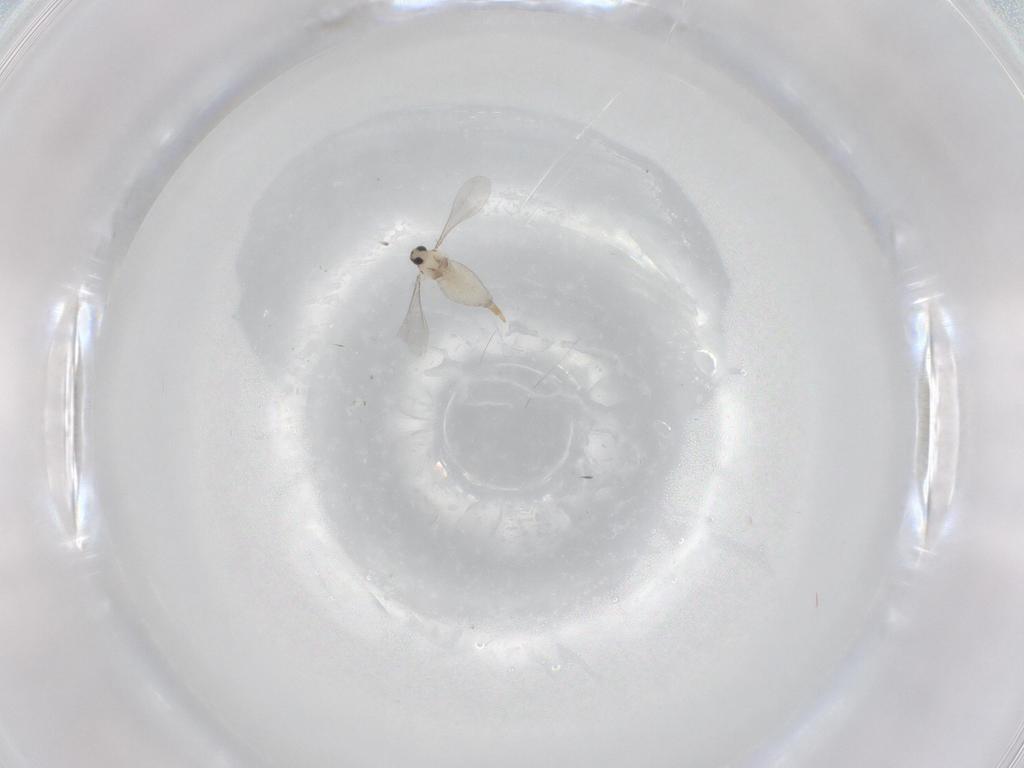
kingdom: Animalia
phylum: Arthropoda
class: Insecta
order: Diptera
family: Cecidomyiidae
